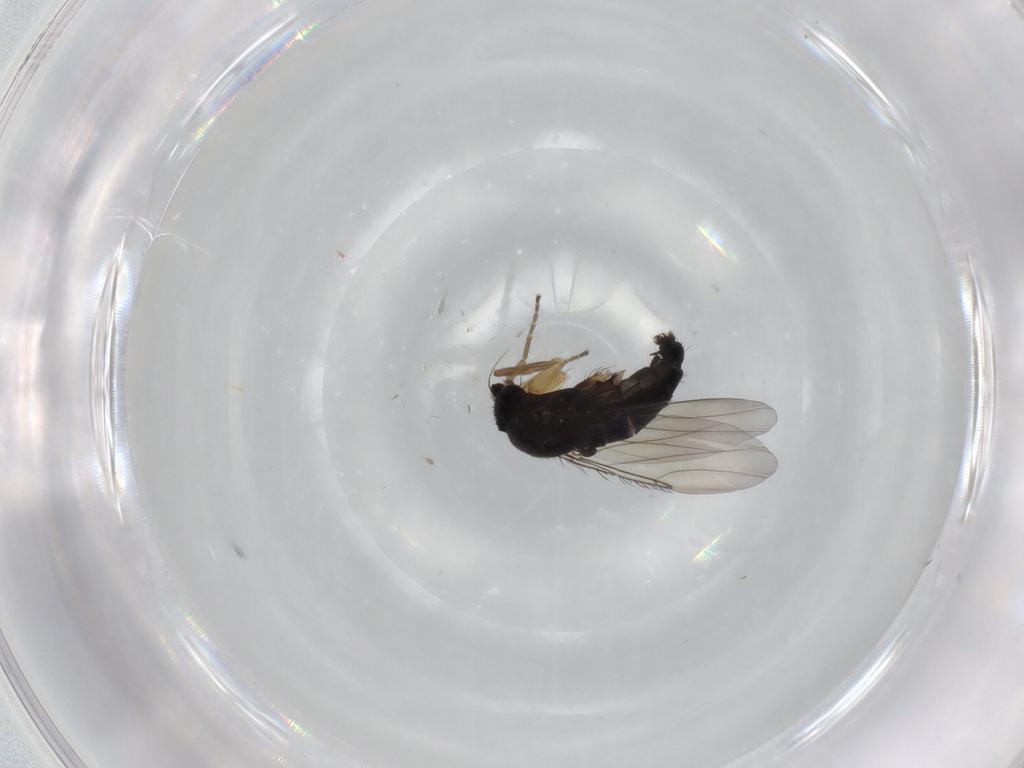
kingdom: Animalia
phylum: Arthropoda
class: Insecta
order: Diptera
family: Phoridae
